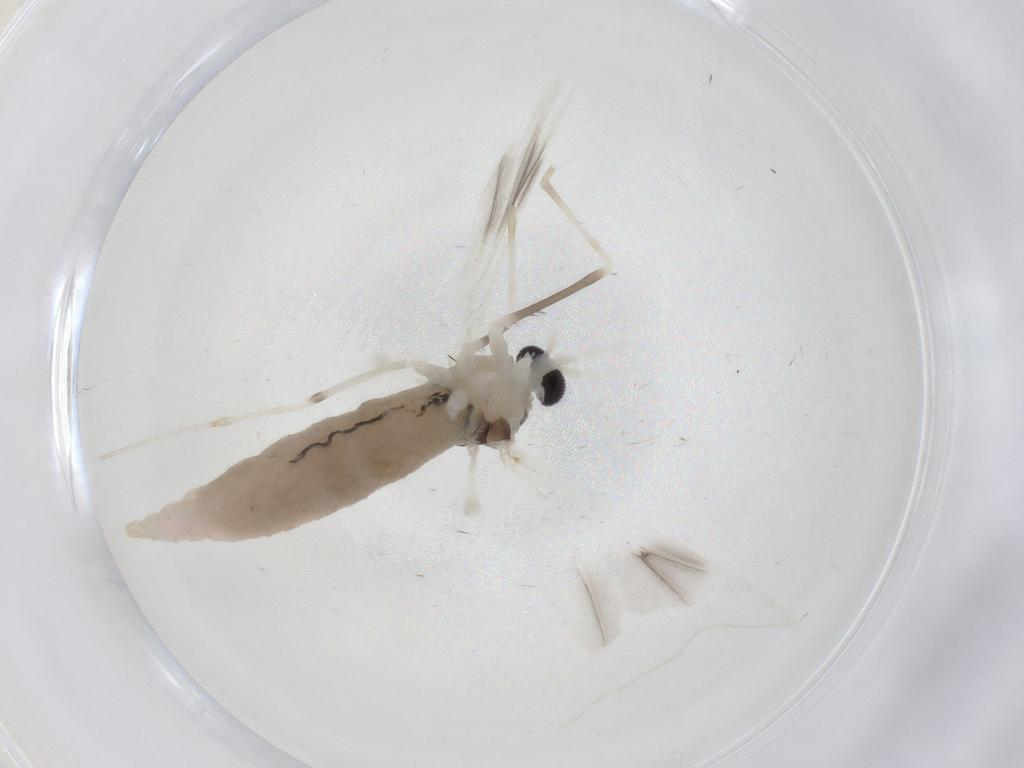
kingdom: Animalia
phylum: Arthropoda
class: Insecta
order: Diptera
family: Cecidomyiidae
